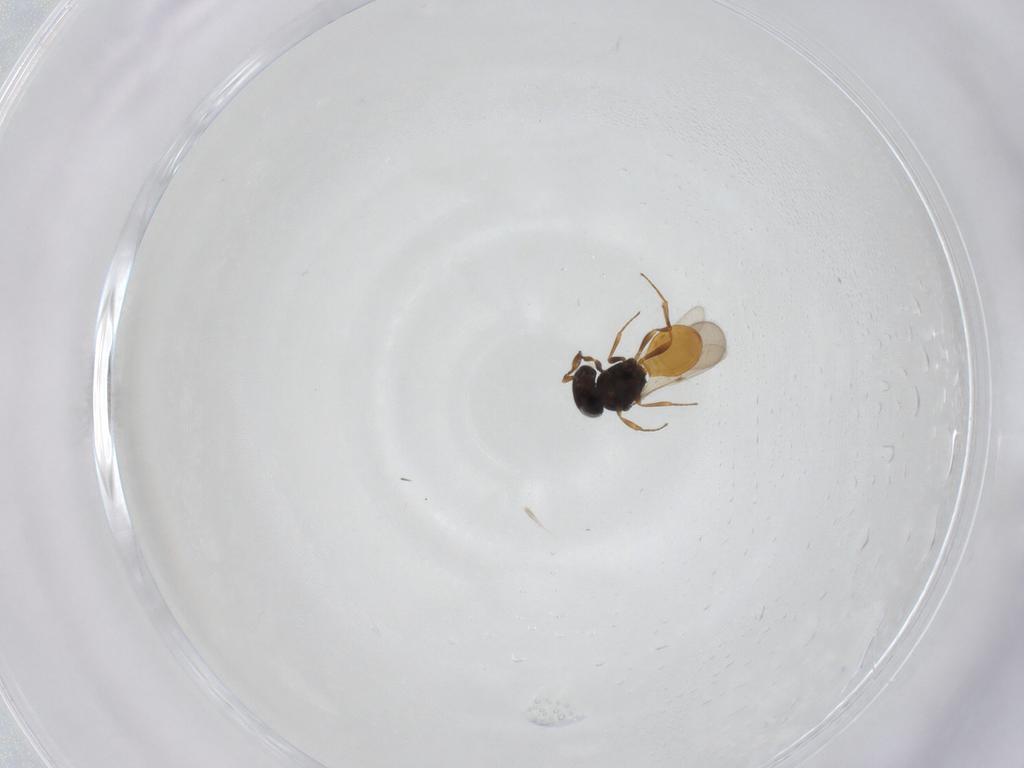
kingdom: Animalia
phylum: Arthropoda
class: Insecta
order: Hymenoptera
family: Scelionidae
